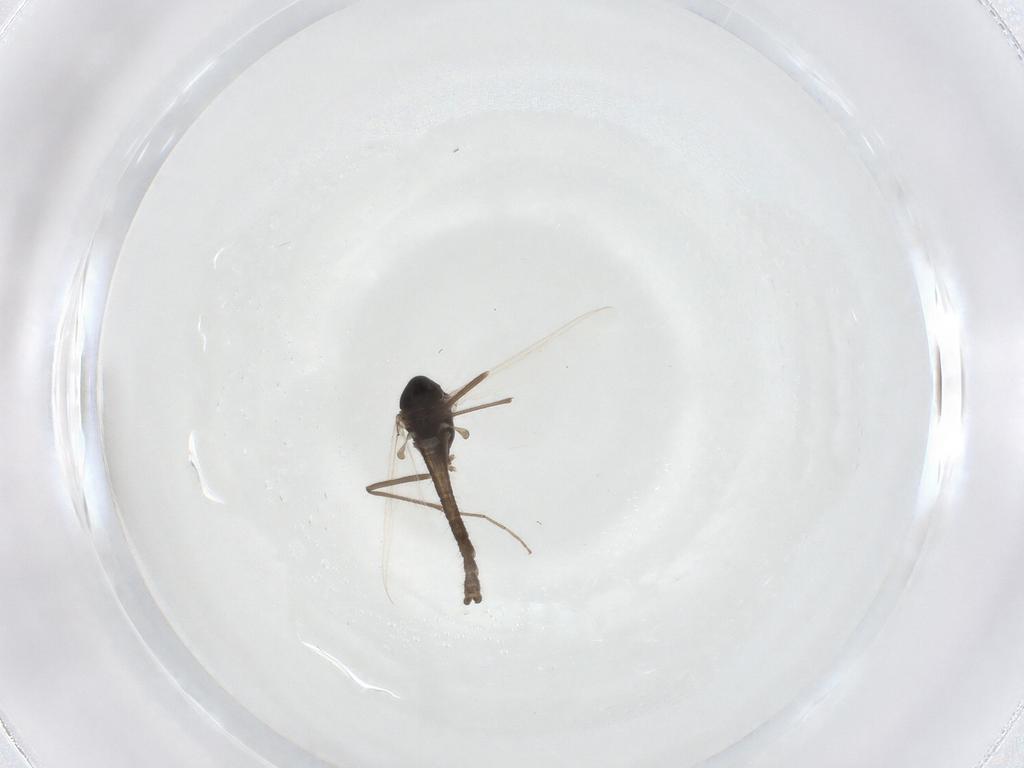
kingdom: Animalia
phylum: Arthropoda
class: Insecta
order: Diptera
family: Chironomidae
